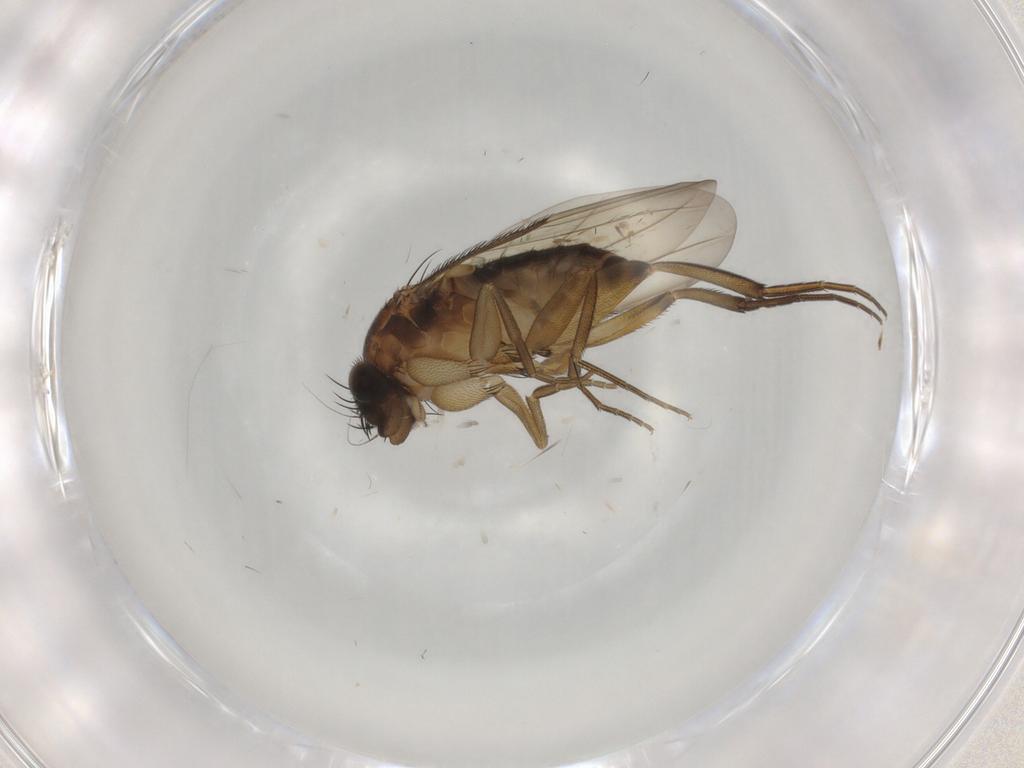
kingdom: Animalia
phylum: Arthropoda
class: Insecta
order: Diptera
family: Phoridae
